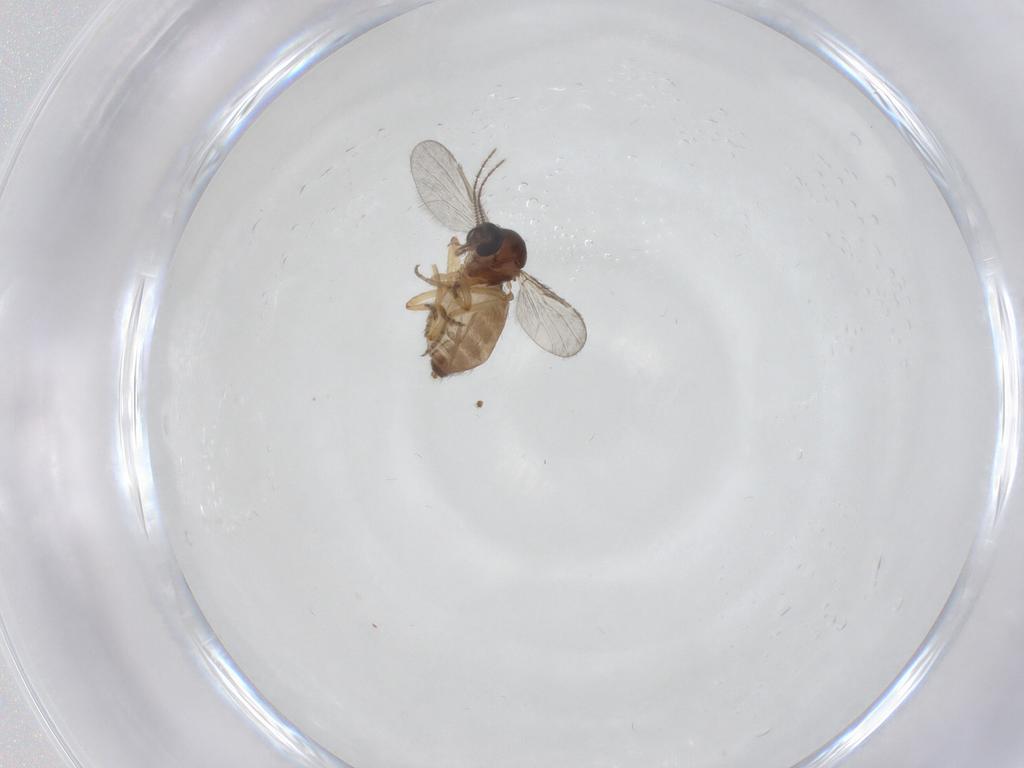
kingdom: Animalia
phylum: Arthropoda
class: Insecta
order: Diptera
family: Ceratopogonidae
